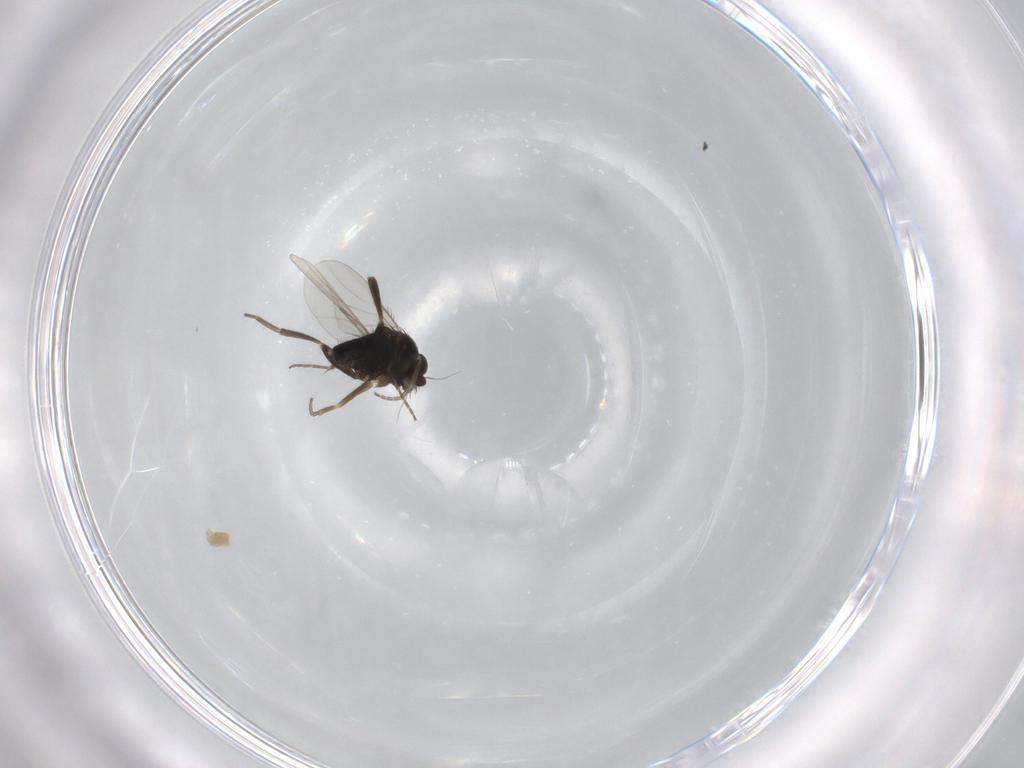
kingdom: Animalia
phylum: Arthropoda
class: Insecta
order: Diptera
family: Phoridae
